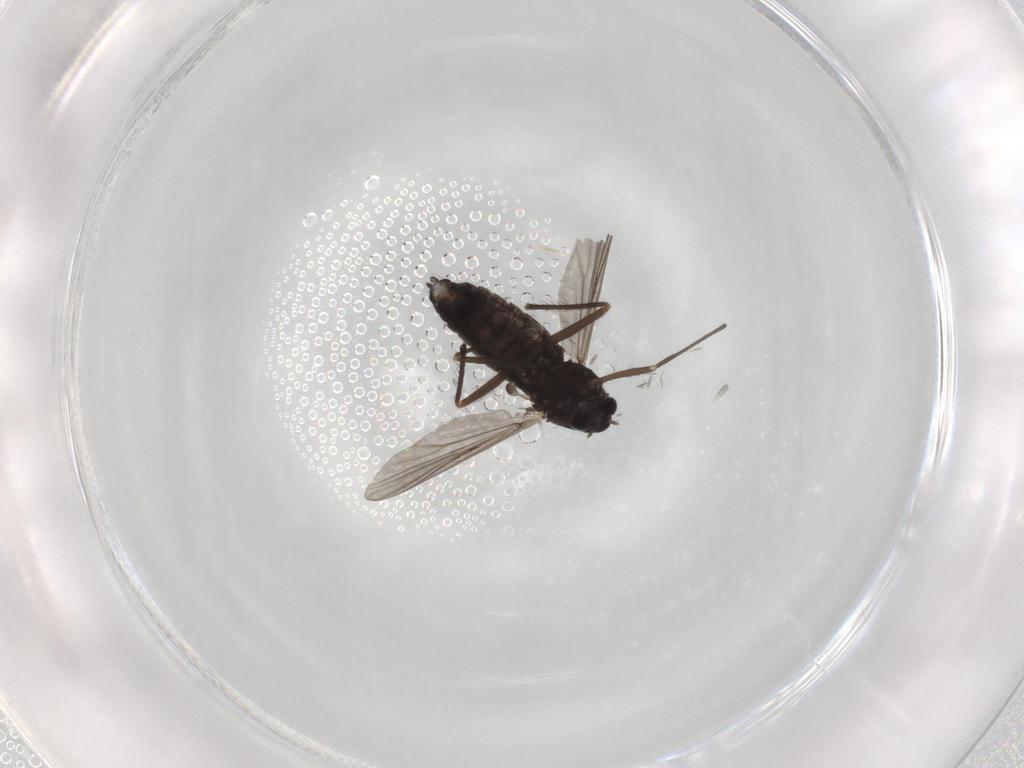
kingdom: Animalia
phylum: Arthropoda
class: Insecta
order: Diptera
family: Chironomidae
